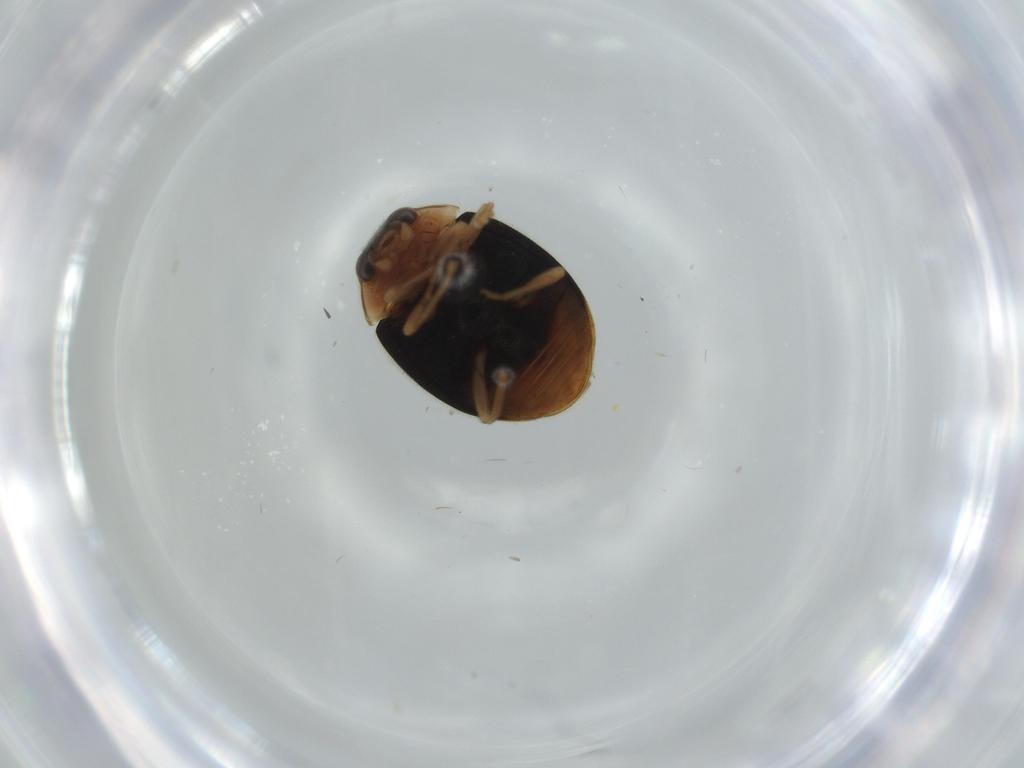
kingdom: Animalia
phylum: Arthropoda
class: Insecta
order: Coleoptera
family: Coccinellidae
